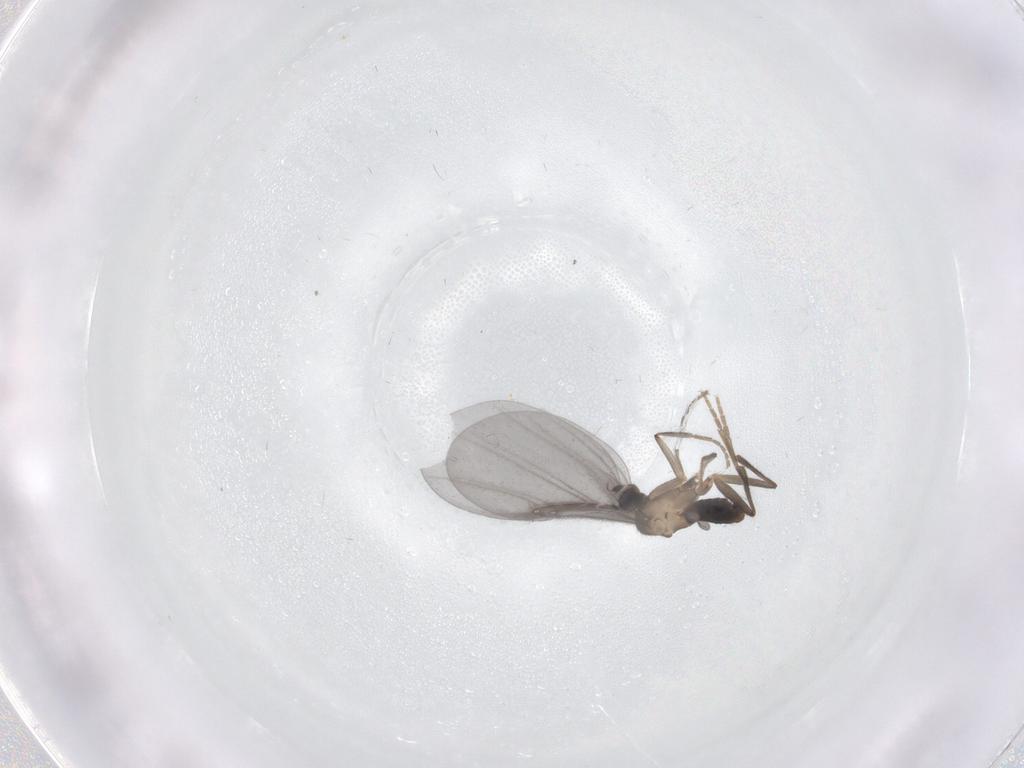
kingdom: Animalia
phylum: Arthropoda
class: Insecta
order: Diptera
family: Phoridae
